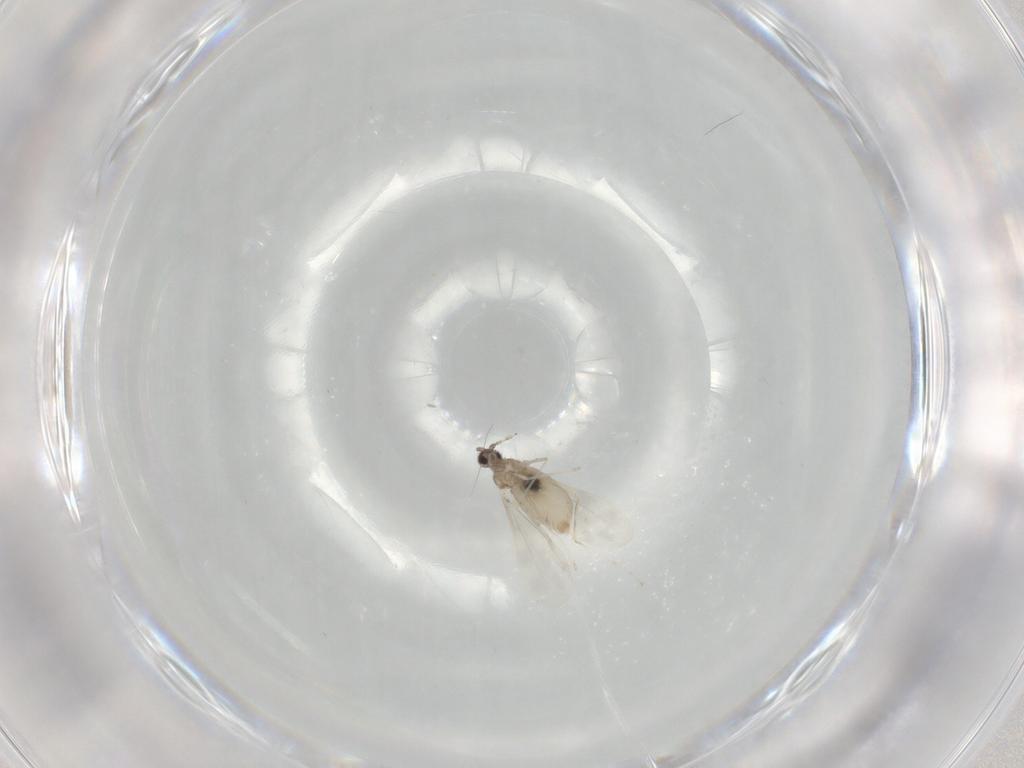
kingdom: Animalia
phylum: Arthropoda
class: Insecta
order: Diptera
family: Cecidomyiidae
